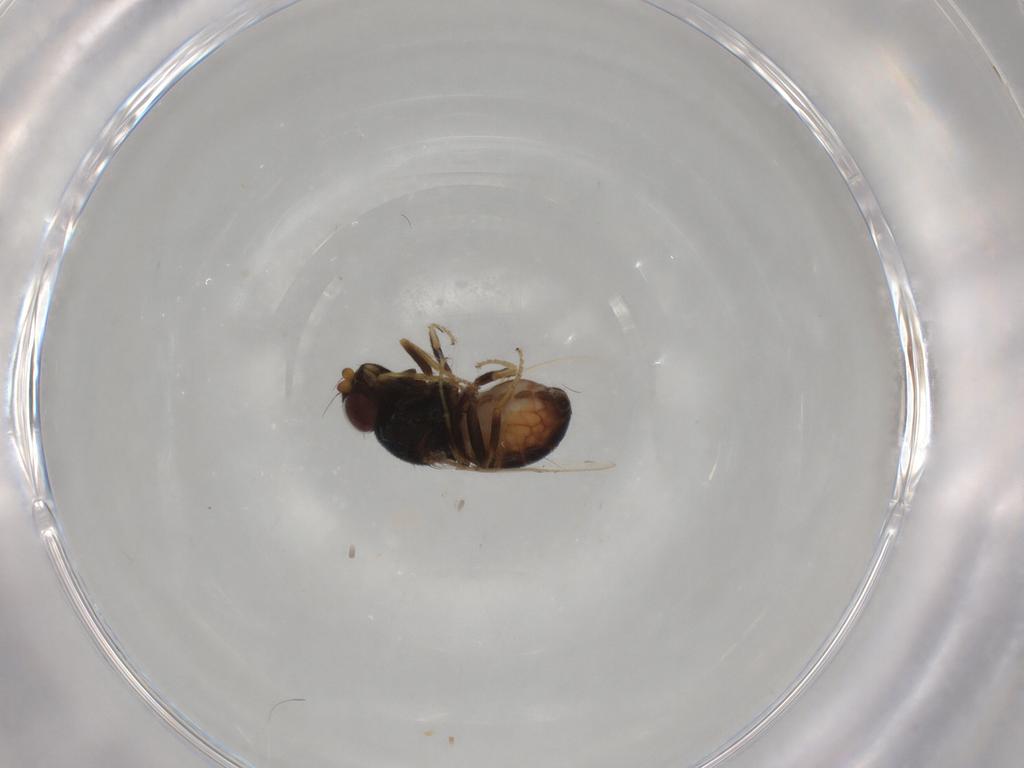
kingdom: Animalia
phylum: Arthropoda
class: Insecta
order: Diptera
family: Chloropidae
